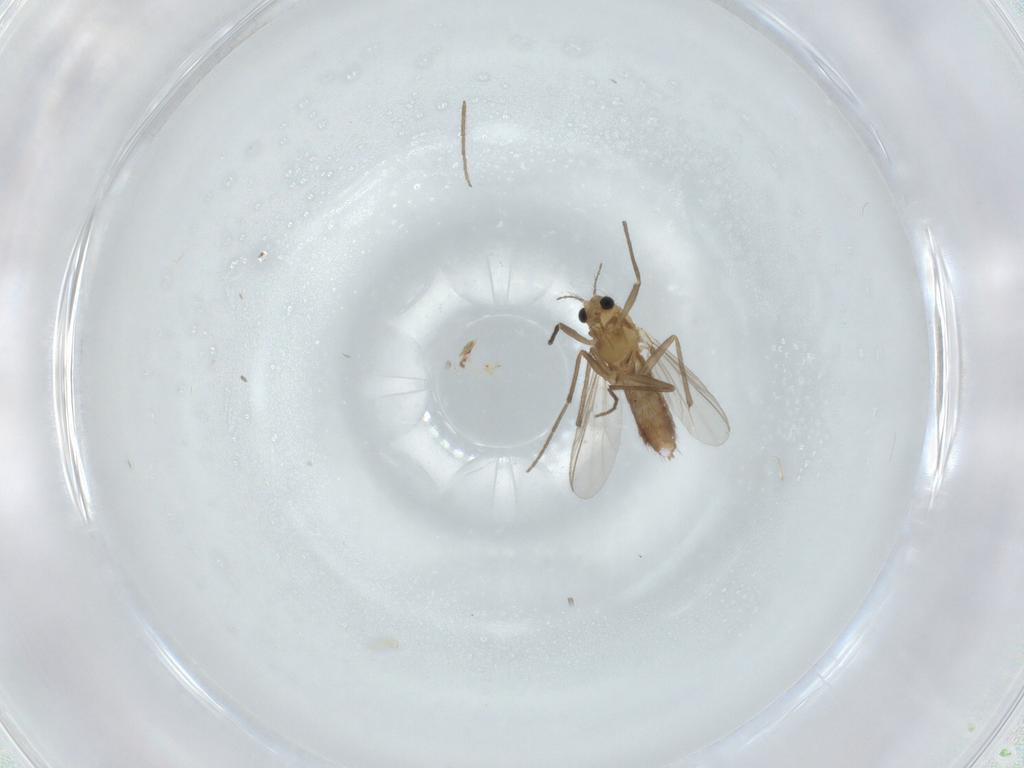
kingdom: Animalia
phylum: Arthropoda
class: Insecta
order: Diptera
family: Chironomidae
